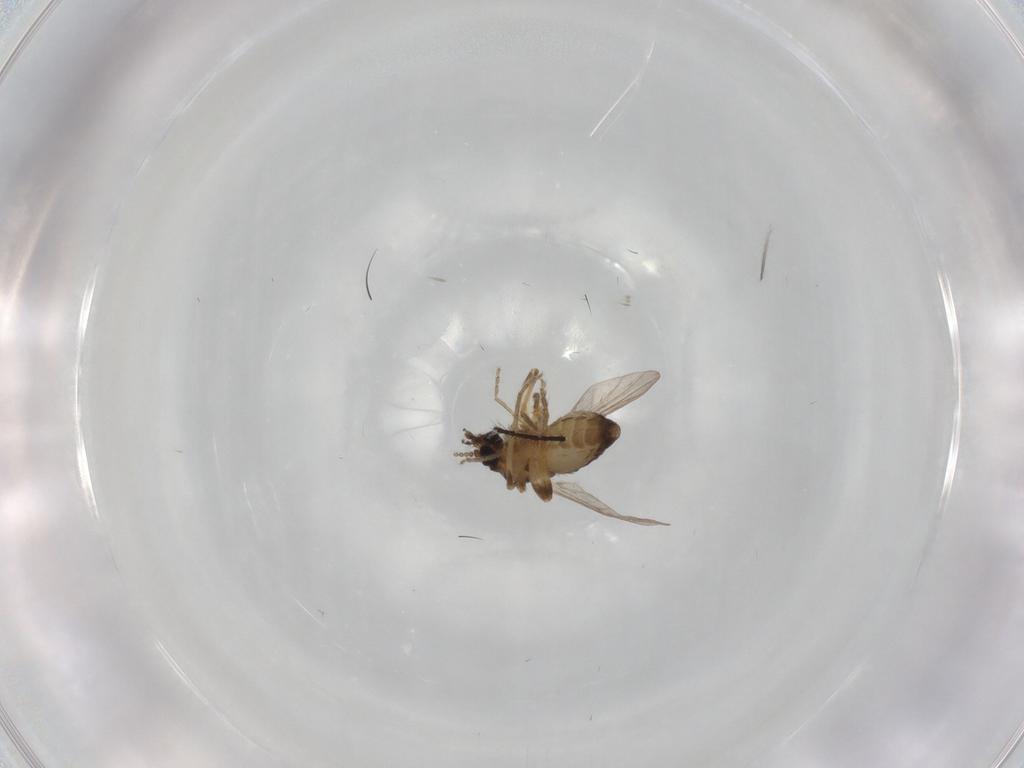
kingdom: Animalia
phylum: Arthropoda
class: Insecta
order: Diptera
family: Ceratopogonidae
